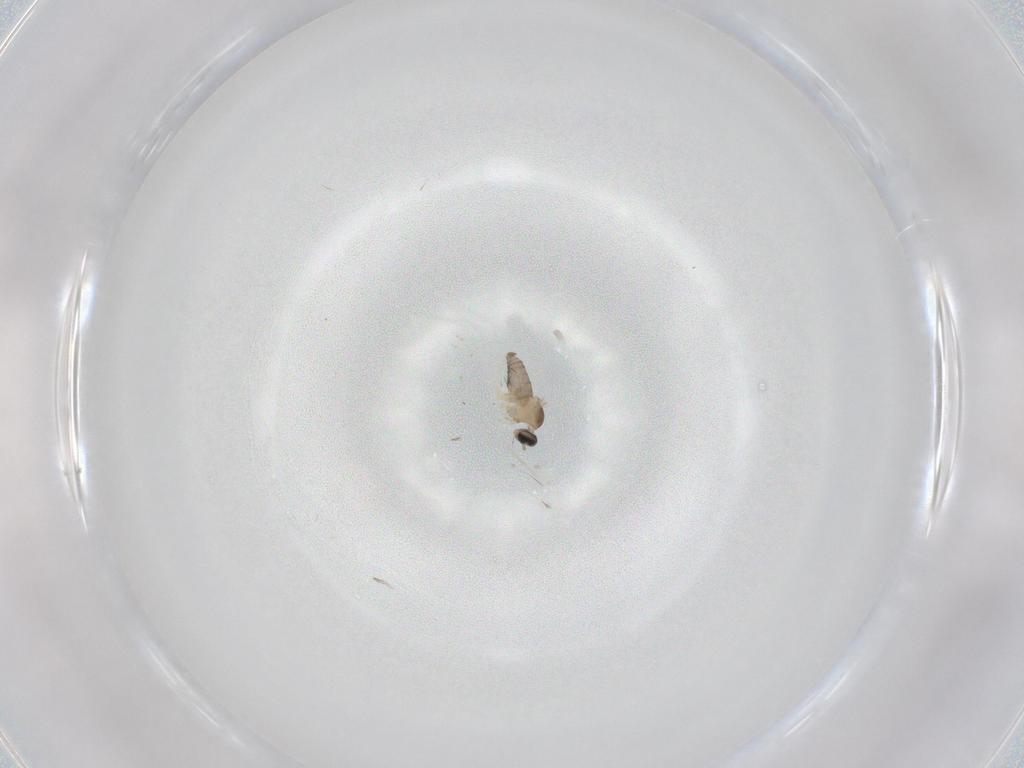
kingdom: Animalia
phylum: Arthropoda
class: Insecta
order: Diptera
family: Cecidomyiidae
